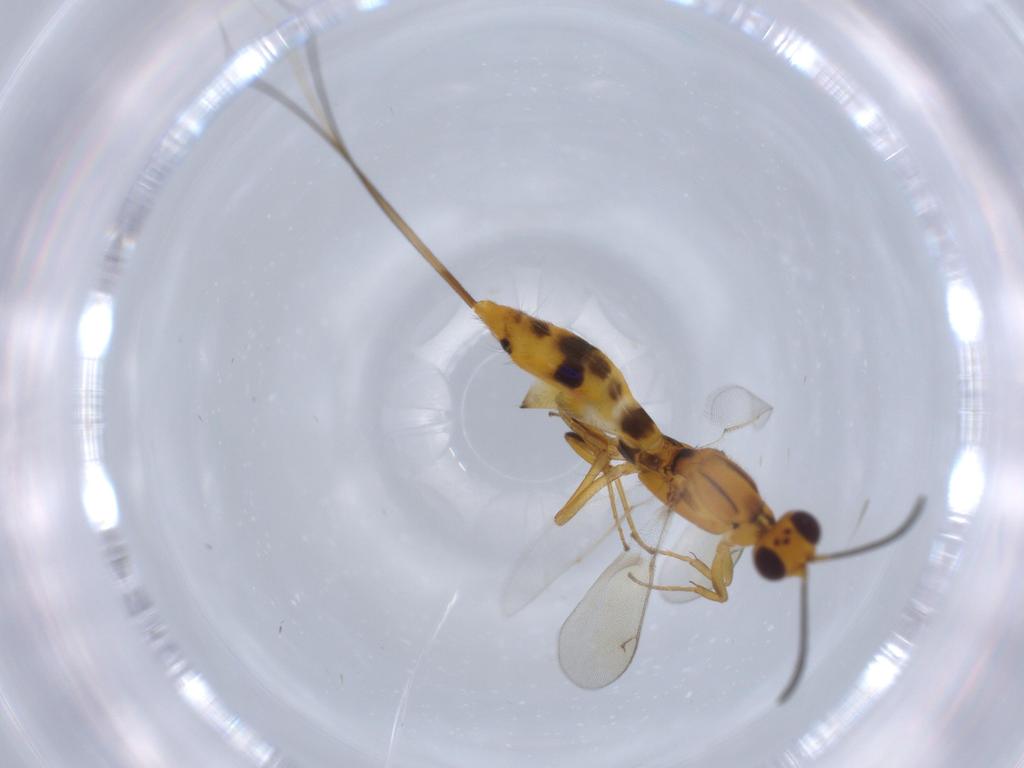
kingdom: Animalia
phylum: Arthropoda
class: Insecta
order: Hymenoptera
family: Eupelmidae
